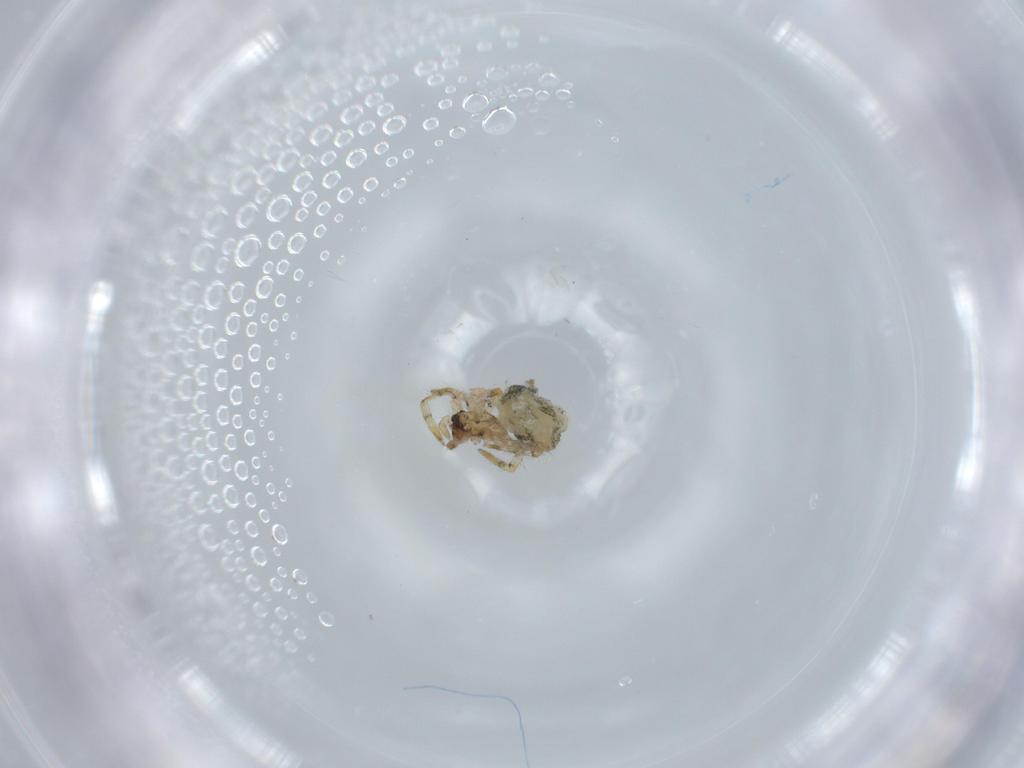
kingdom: Animalia
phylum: Arthropoda
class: Arachnida
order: Araneae
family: Theridiidae
